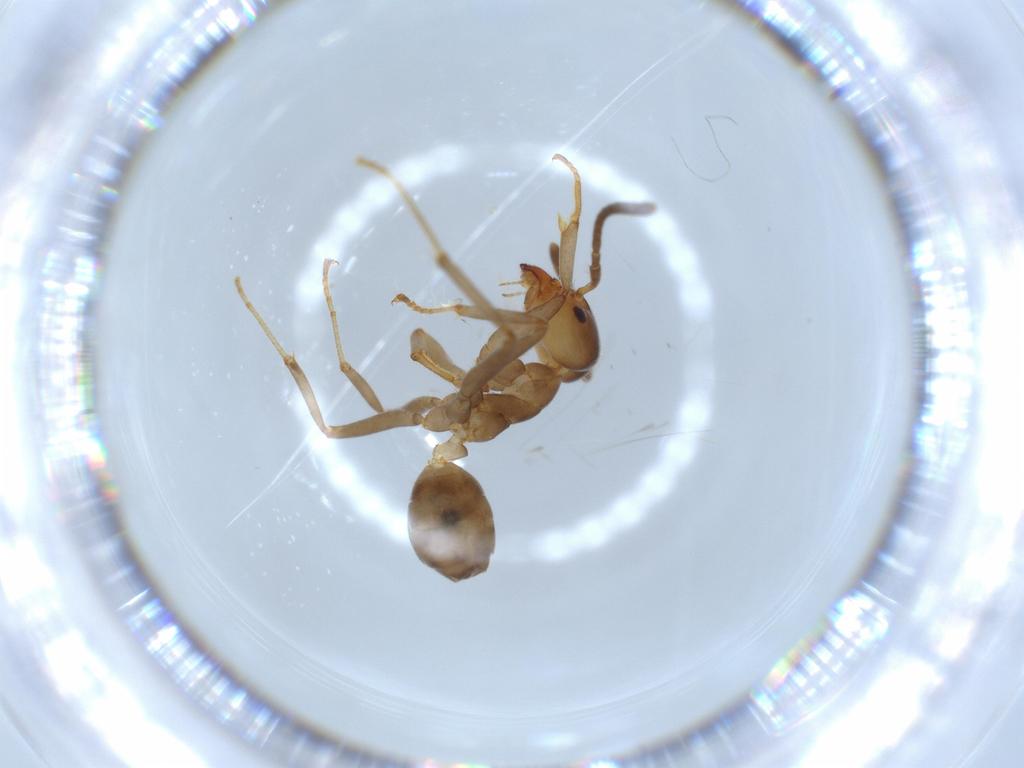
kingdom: Animalia
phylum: Arthropoda
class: Insecta
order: Hymenoptera
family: Formicidae
